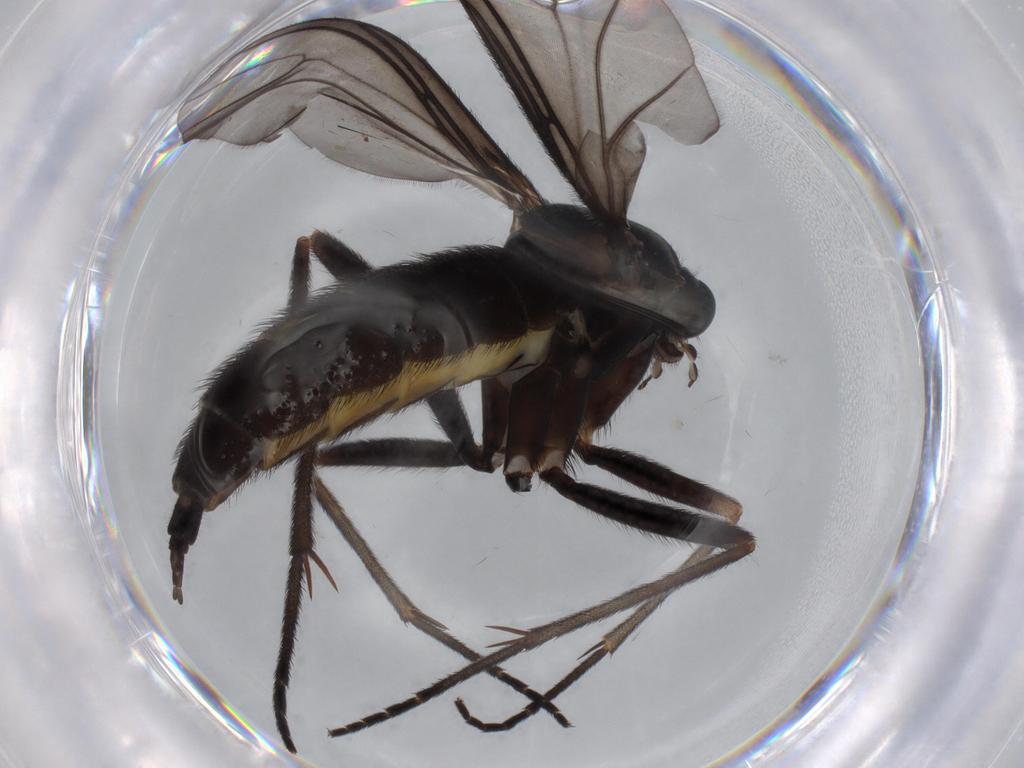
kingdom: Animalia
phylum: Arthropoda
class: Insecta
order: Diptera
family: Sciaridae
